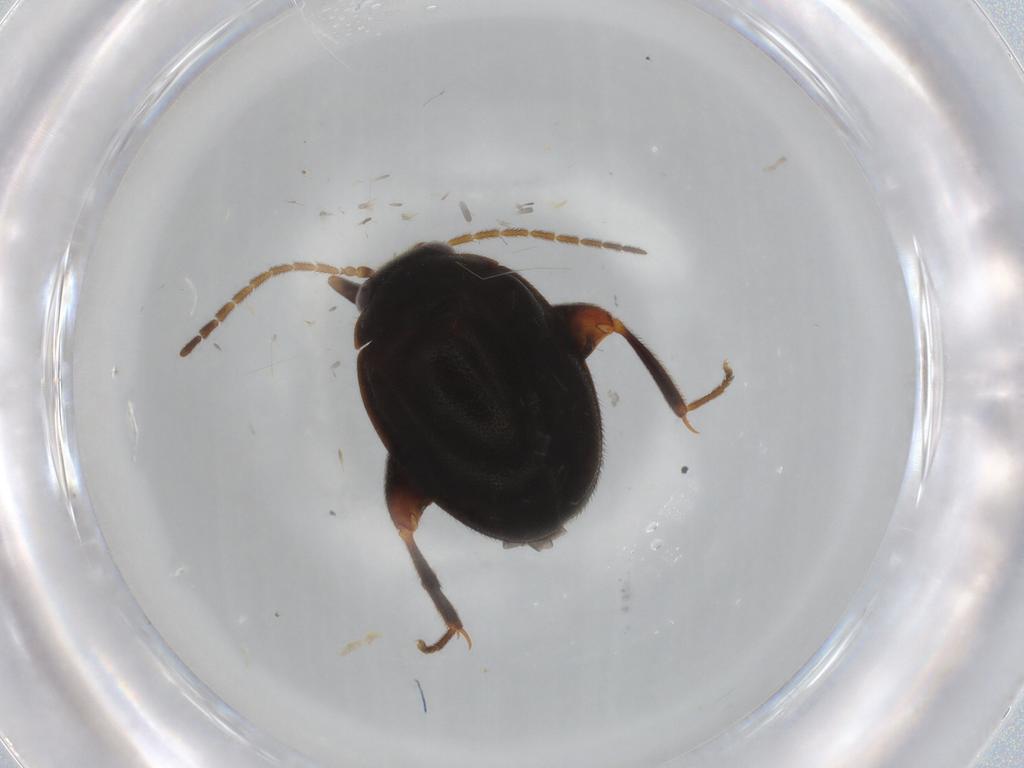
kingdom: Animalia
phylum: Arthropoda
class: Insecta
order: Coleoptera
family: Scirtidae
